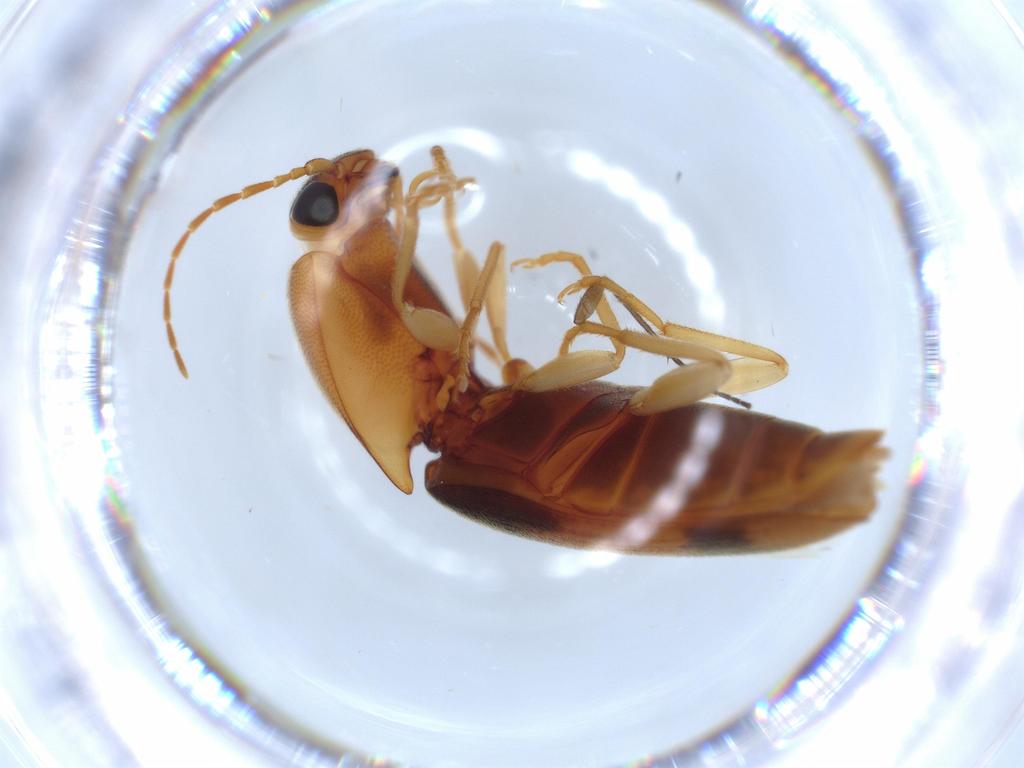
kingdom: Animalia
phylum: Arthropoda
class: Insecta
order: Coleoptera
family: Curculionidae
